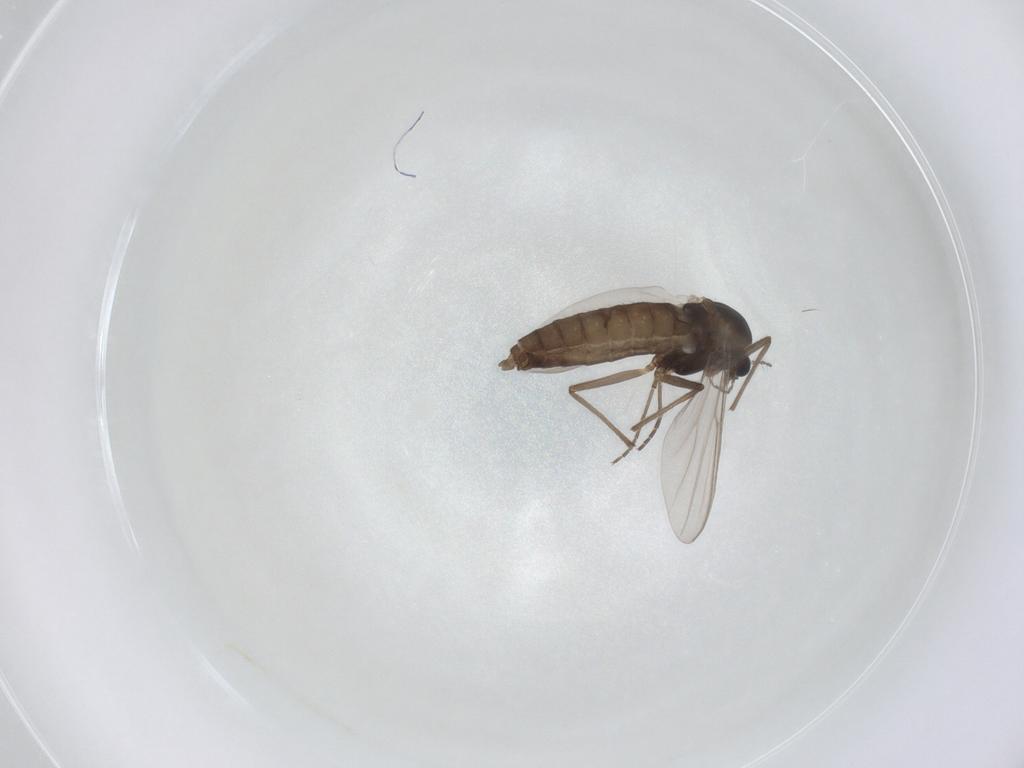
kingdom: Animalia
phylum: Arthropoda
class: Insecta
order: Diptera
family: Chironomidae
